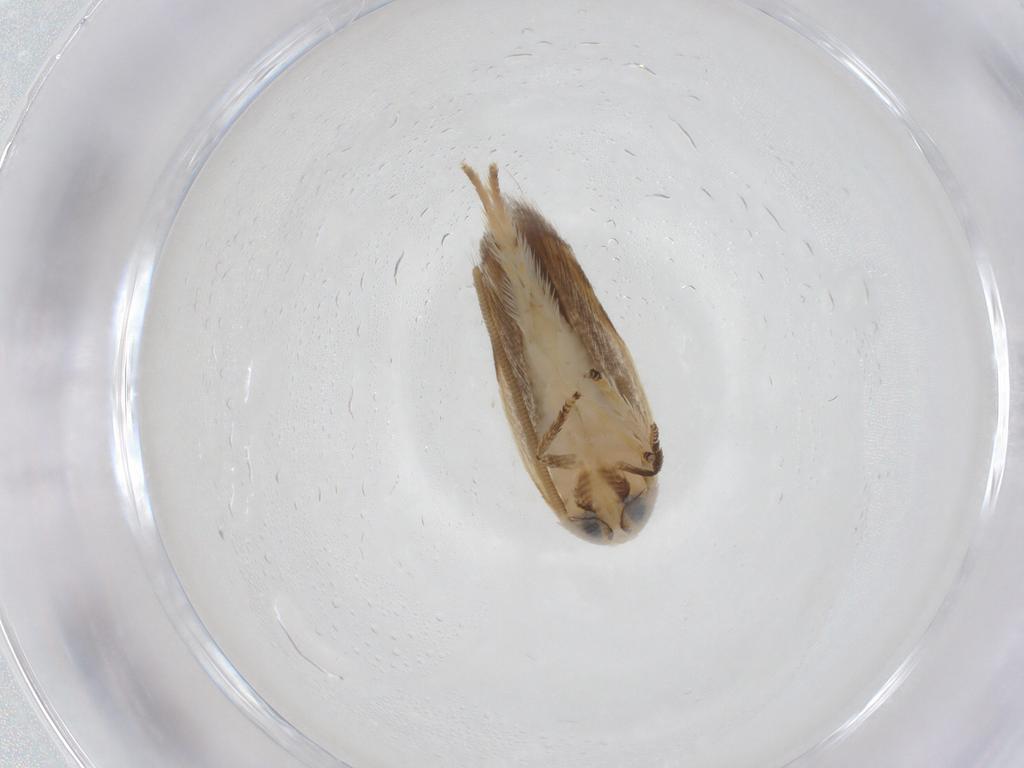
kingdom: Animalia
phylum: Arthropoda
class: Insecta
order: Lepidoptera
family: Opostegidae
